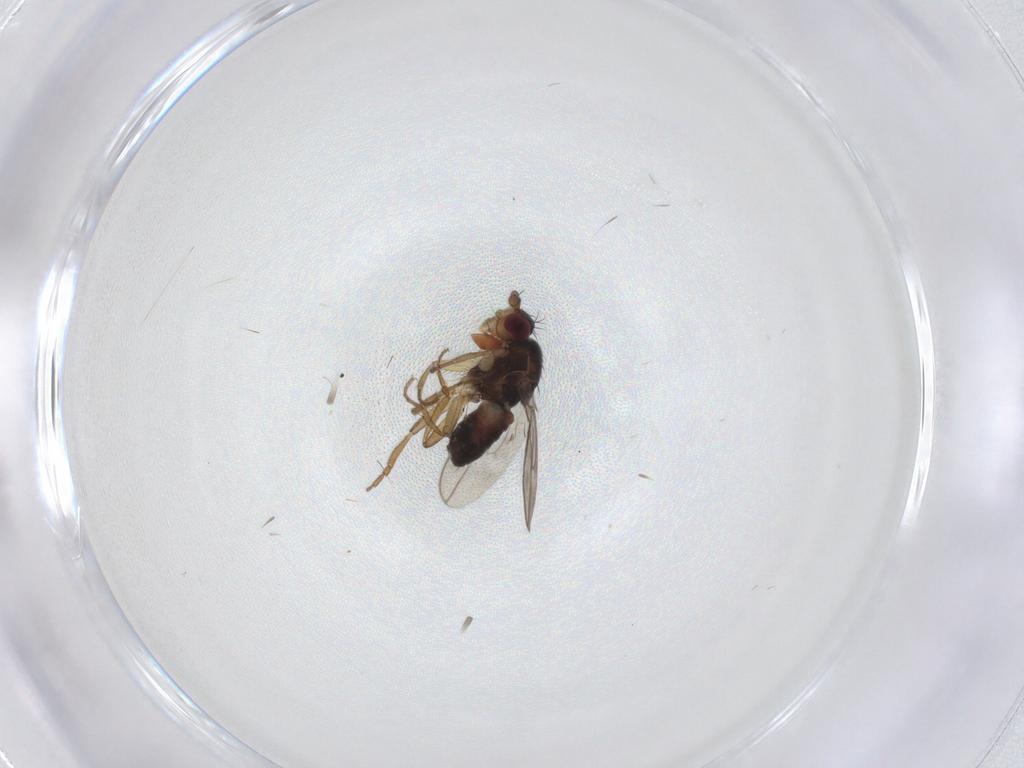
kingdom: Animalia
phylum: Arthropoda
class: Insecta
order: Diptera
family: Sphaeroceridae
